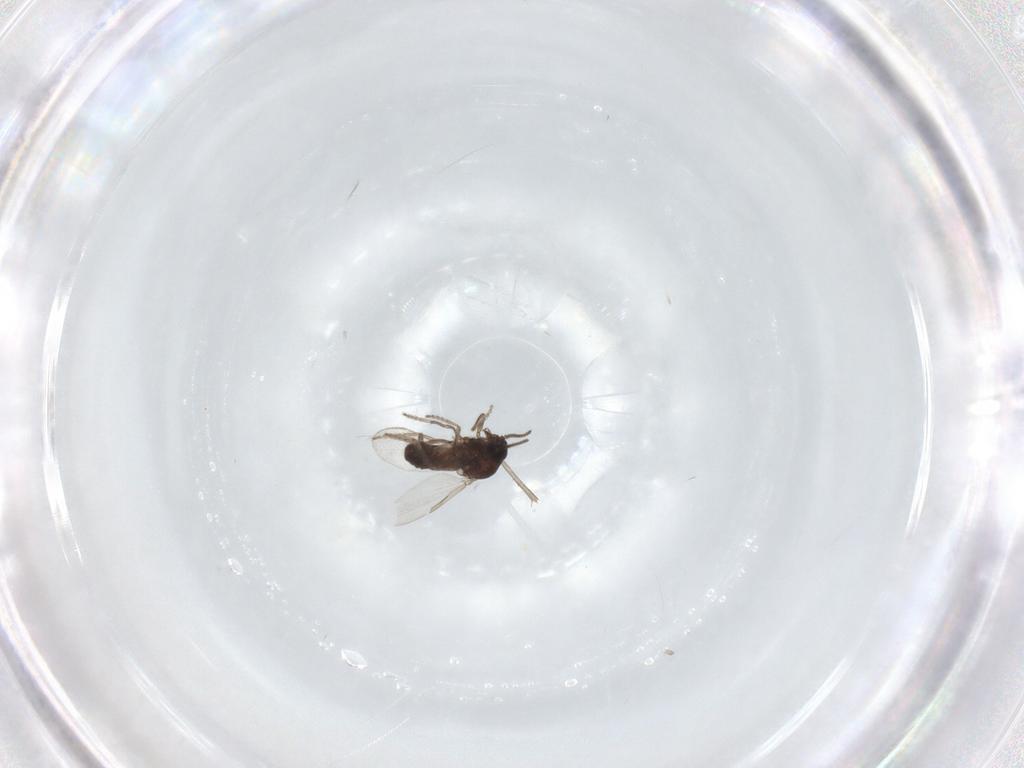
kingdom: Animalia
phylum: Arthropoda
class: Insecta
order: Diptera
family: Ceratopogonidae
